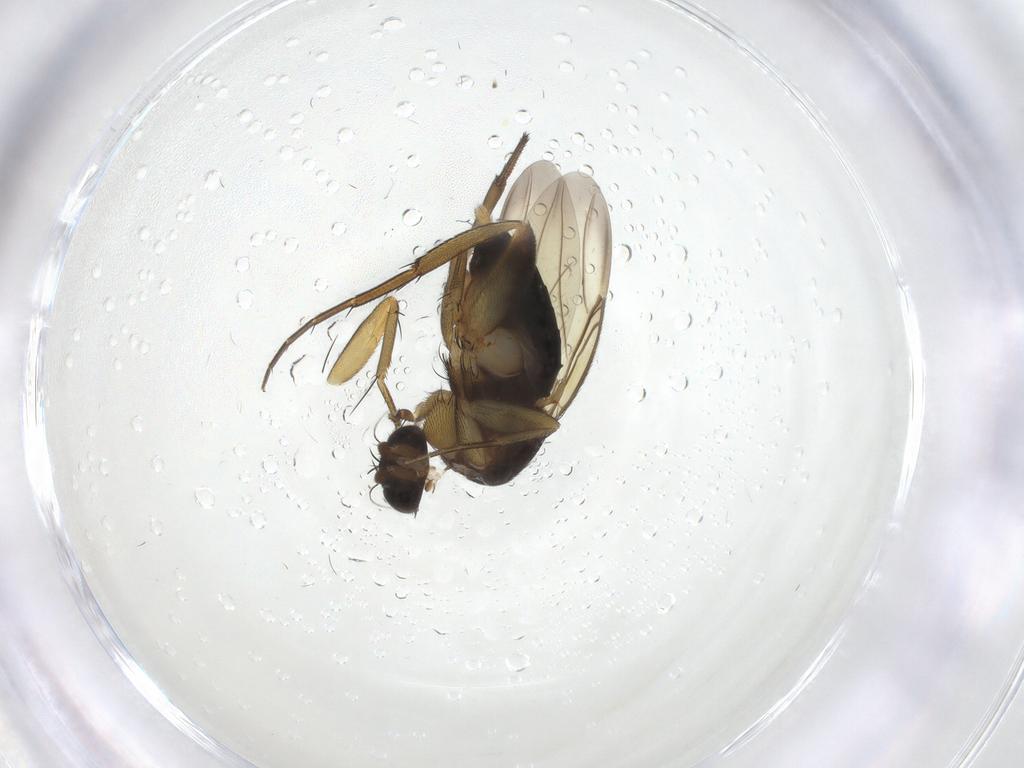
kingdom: Animalia
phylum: Arthropoda
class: Insecta
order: Diptera
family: Phoridae
